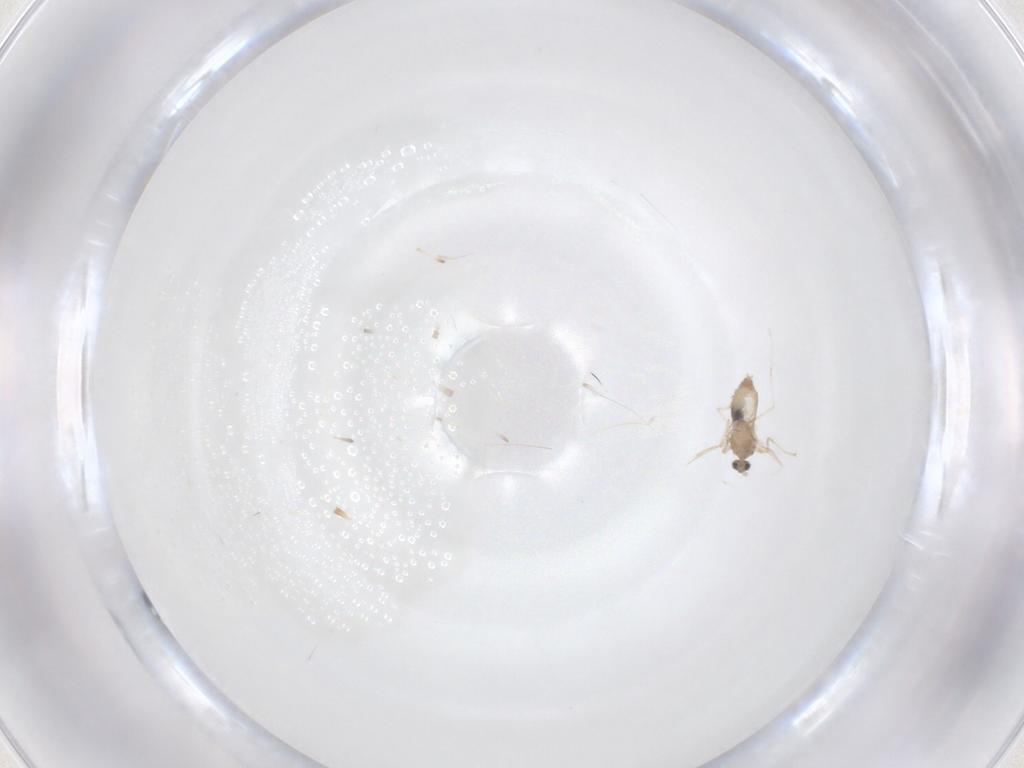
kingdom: Animalia
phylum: Arthropoda
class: Insecta
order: Diptera
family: Cecidomyiidae
